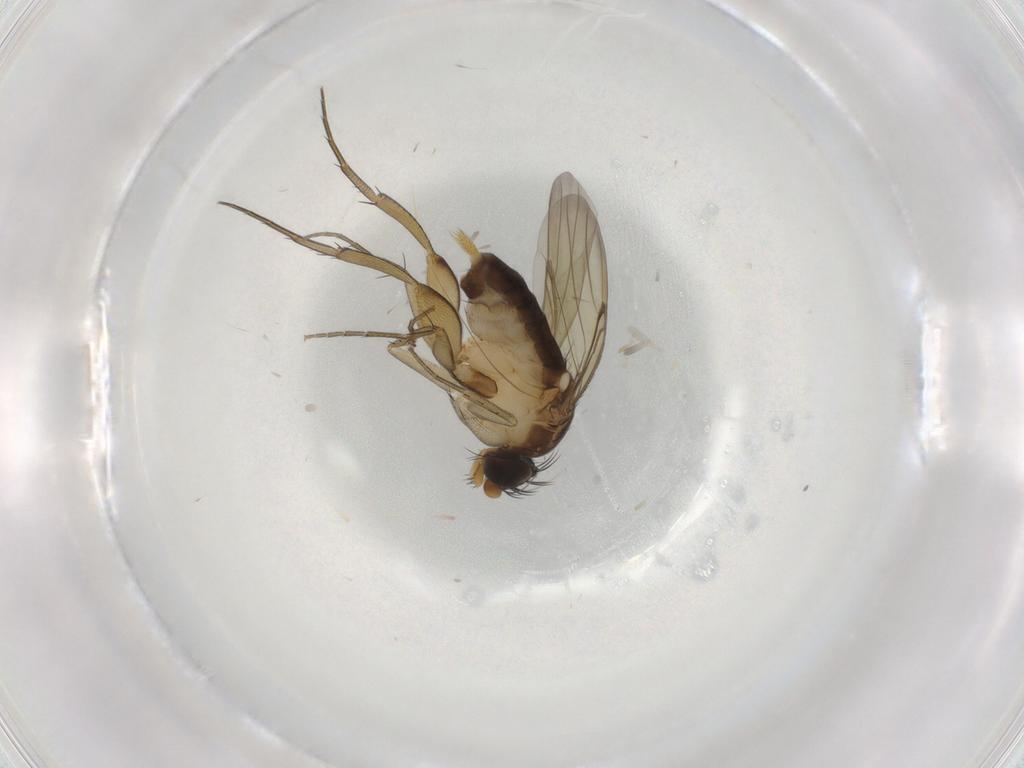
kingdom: Animalia
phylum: Arthropoda
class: Insecta
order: Diptera
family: Phoridae
